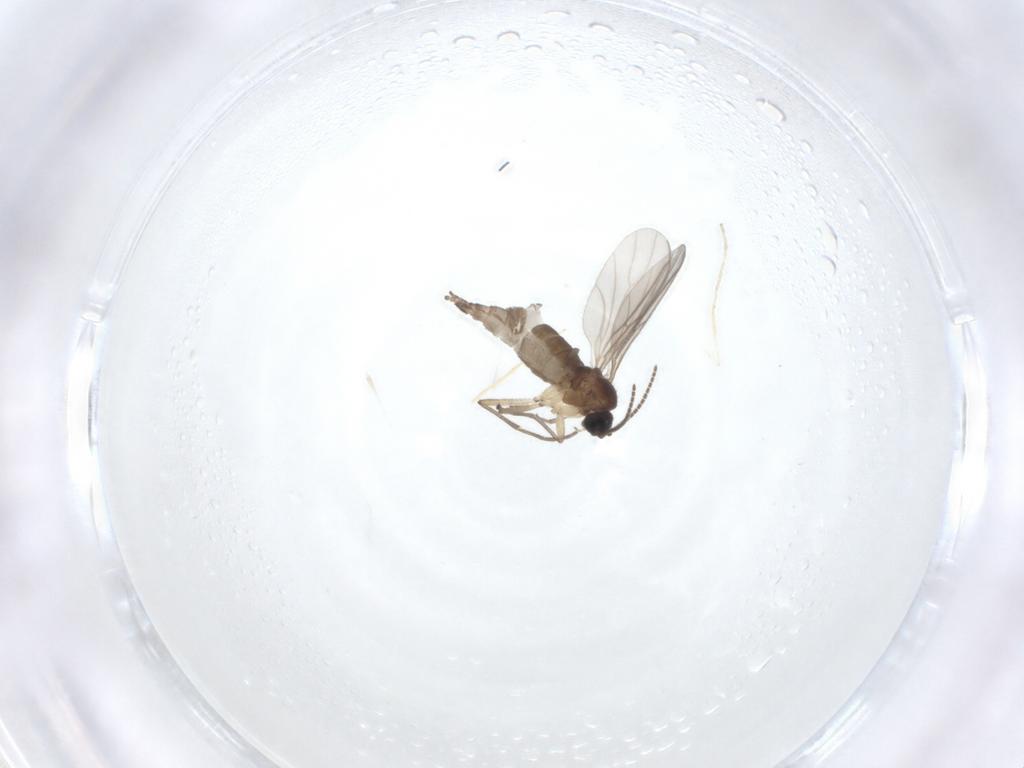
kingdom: Animalia
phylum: Arthropoda
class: Insecta
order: Diptera
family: Sciaridae
